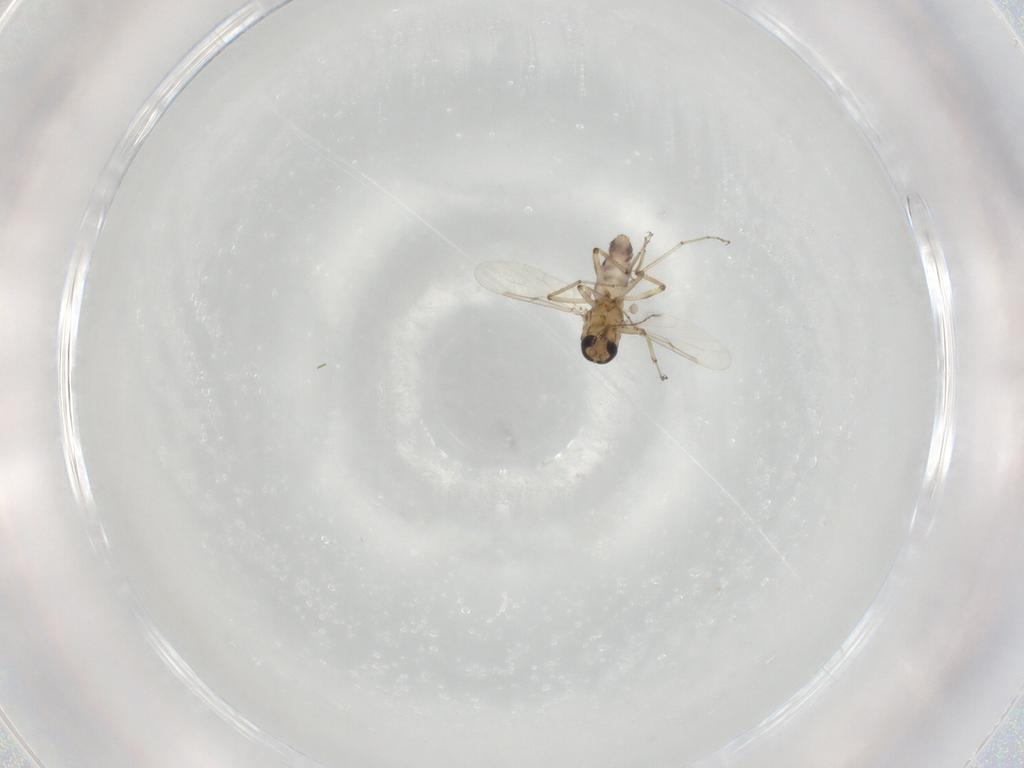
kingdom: Animalia
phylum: Arthropoda
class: Insecta
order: Diptera
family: Ceratopogonidae
